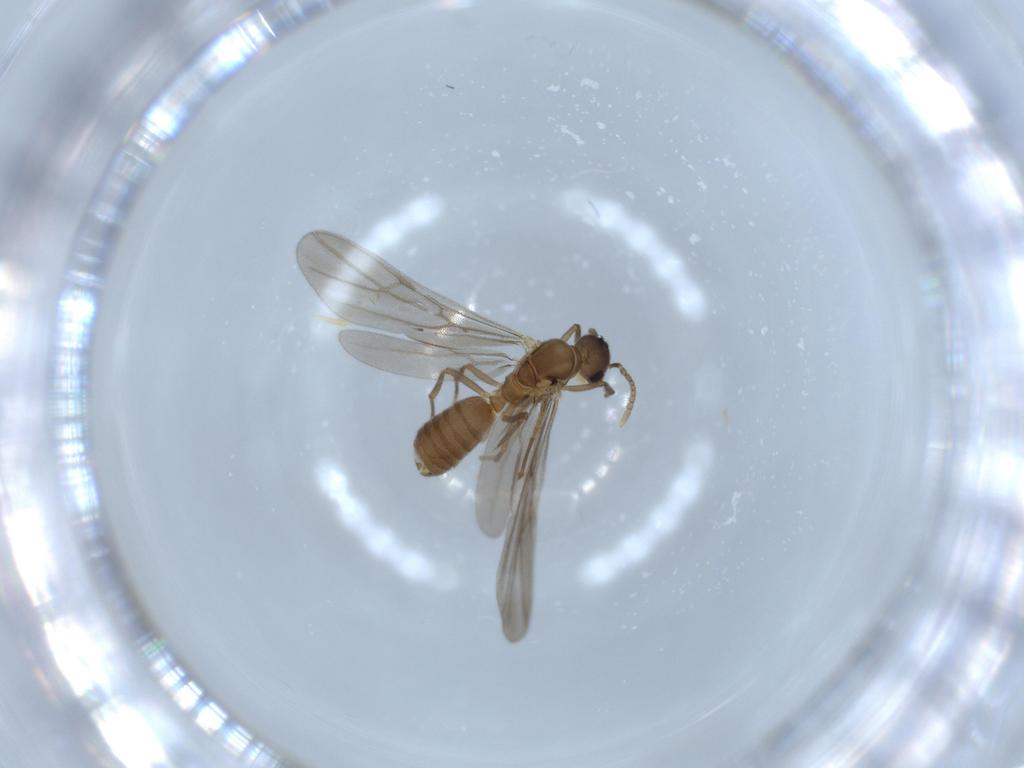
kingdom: Animalia
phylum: Arthropoda
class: Insecta
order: Hymenoptera
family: Formicidae
